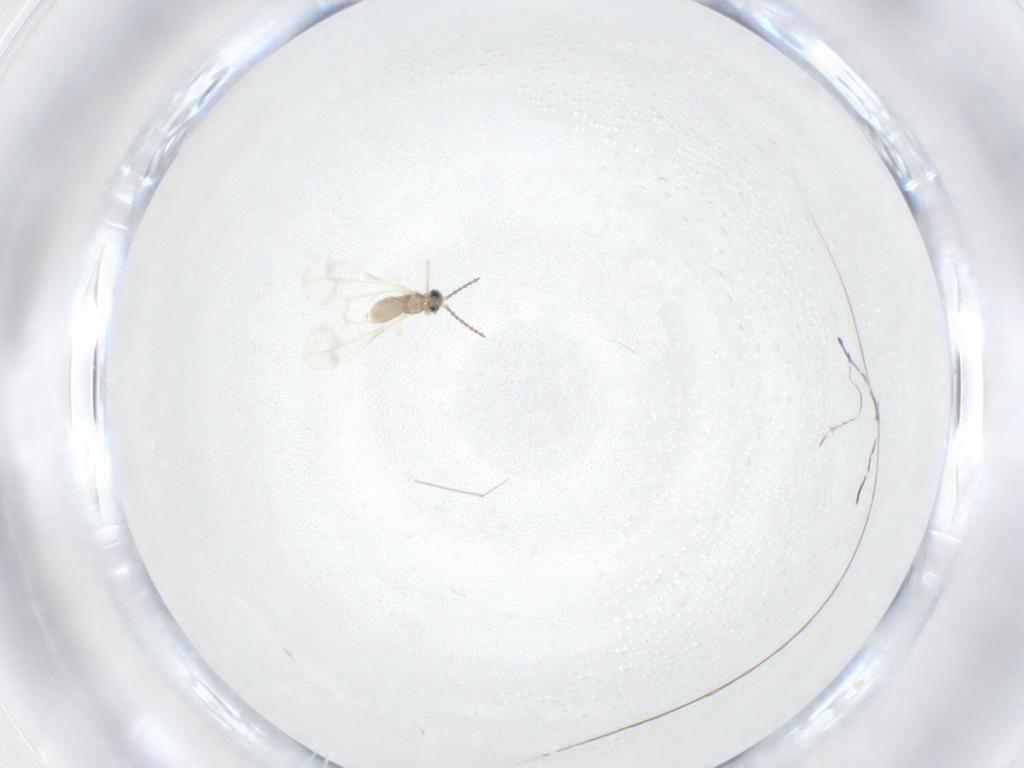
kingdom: Animalia
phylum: Arthropoda
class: Insecta
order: Diptera
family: Cecidomyiidae
